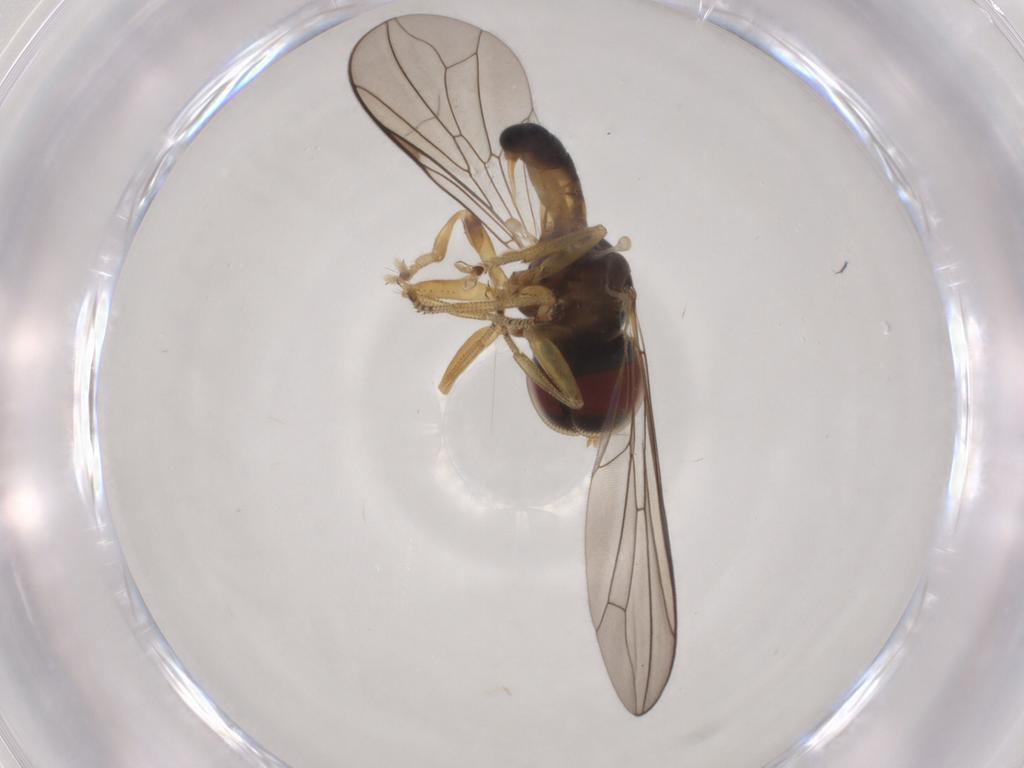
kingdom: Animalia
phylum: Arthropoda
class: Insecta
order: Diptera
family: Pipunculidae
